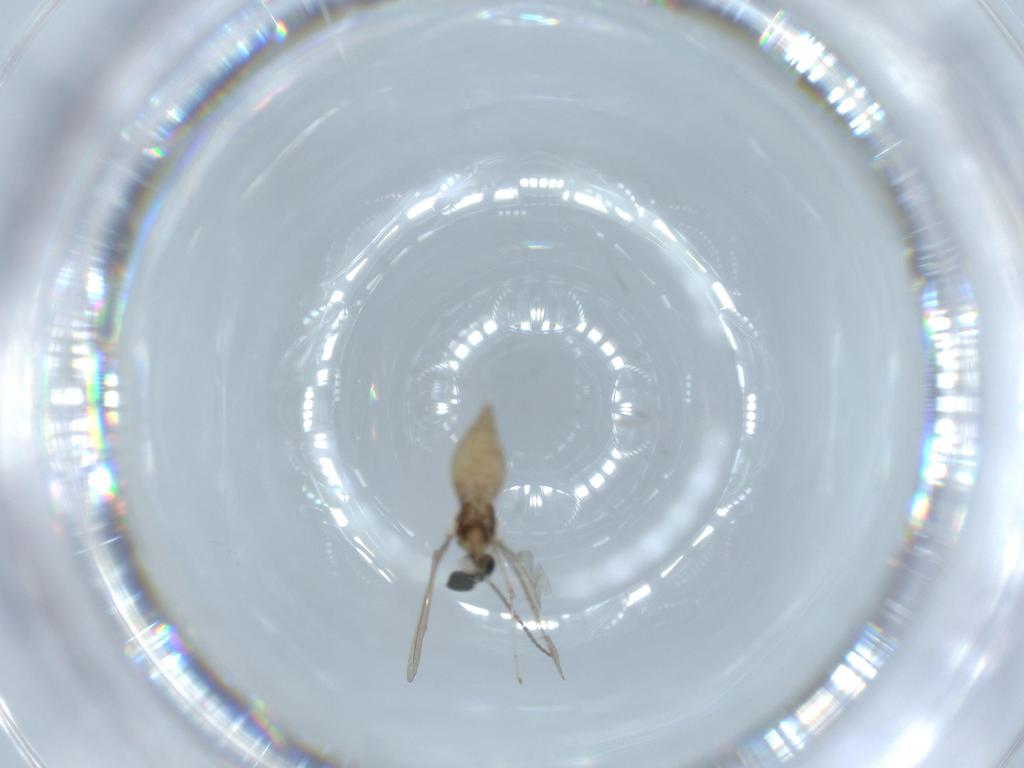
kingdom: Animalia
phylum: Arthropoda
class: Insecta
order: Diptera
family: Cecidomyiidae
